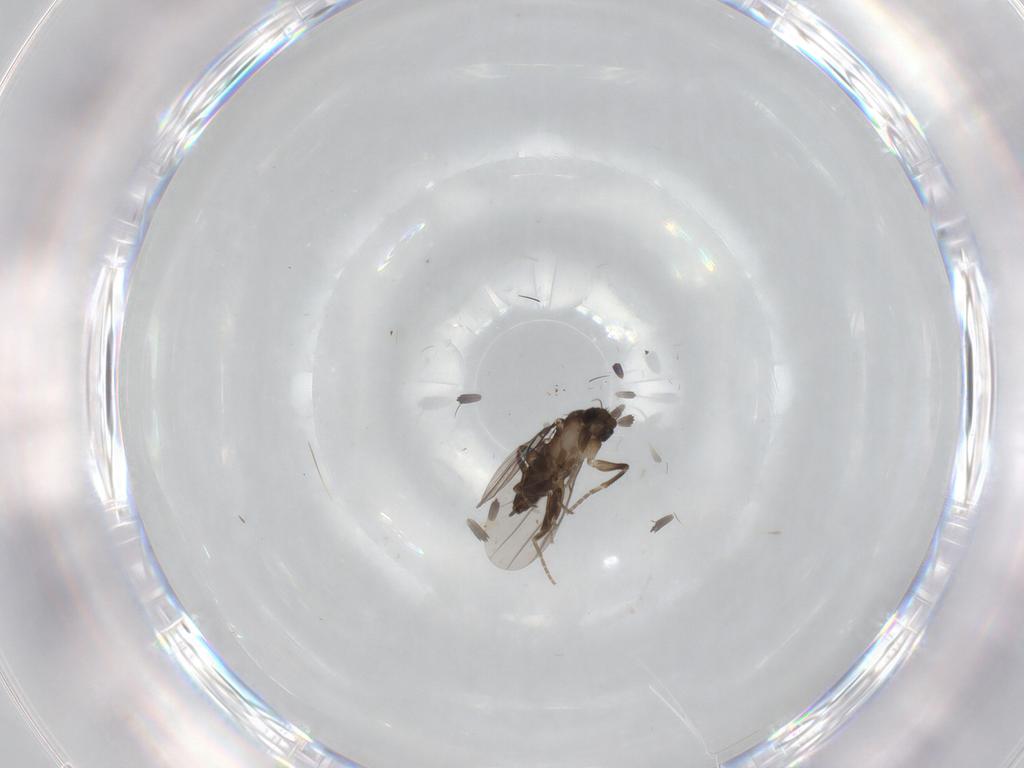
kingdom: Animalia
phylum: Arthropoda
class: Insecta
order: Diptera
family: Phoridae
